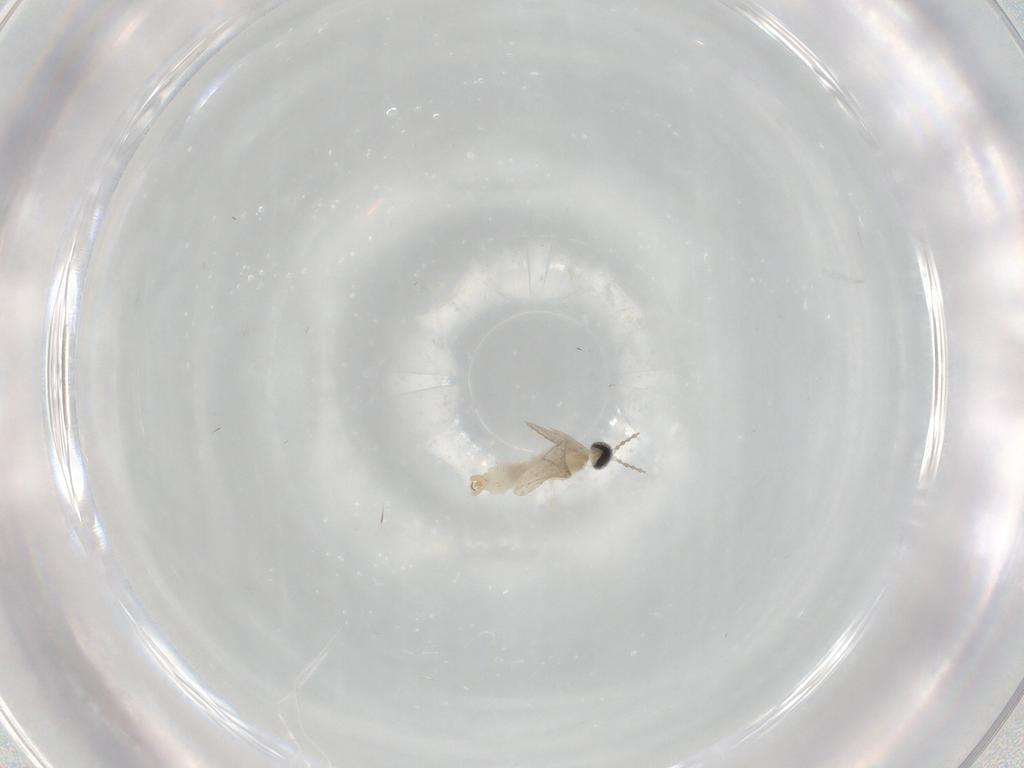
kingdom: Animalia
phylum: Arthropoda
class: Insecta
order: Diptera
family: Cecidomyiidae
